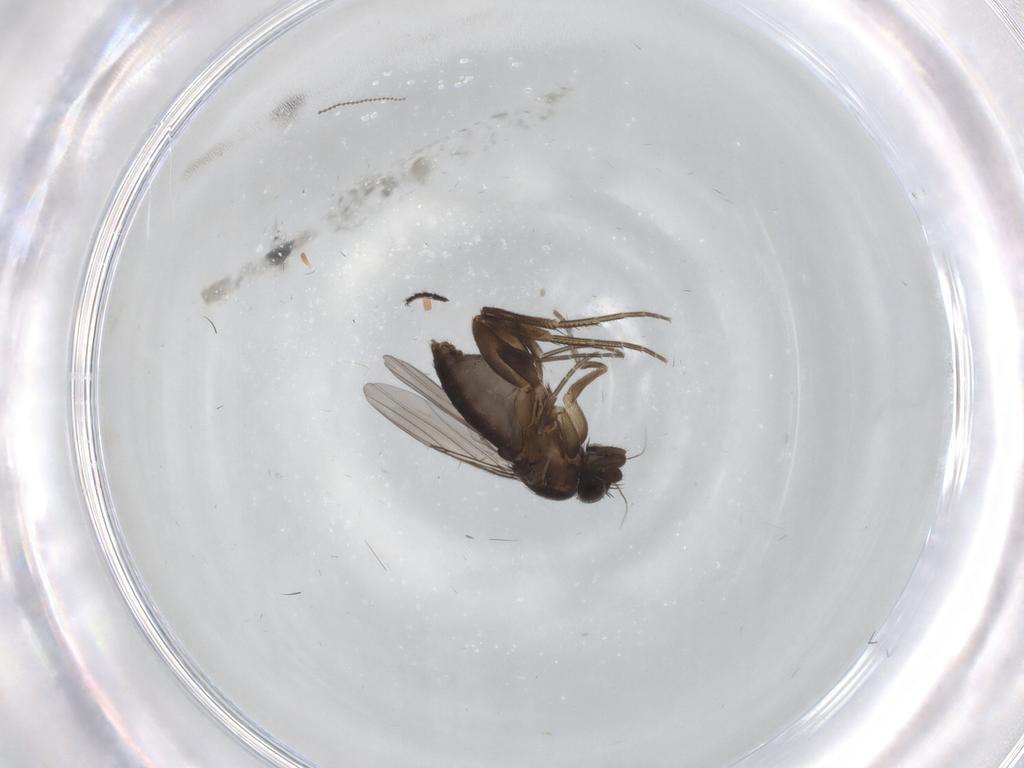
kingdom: Animalia
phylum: Arthropoda
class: Insecta
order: Diptera
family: Phoridae
